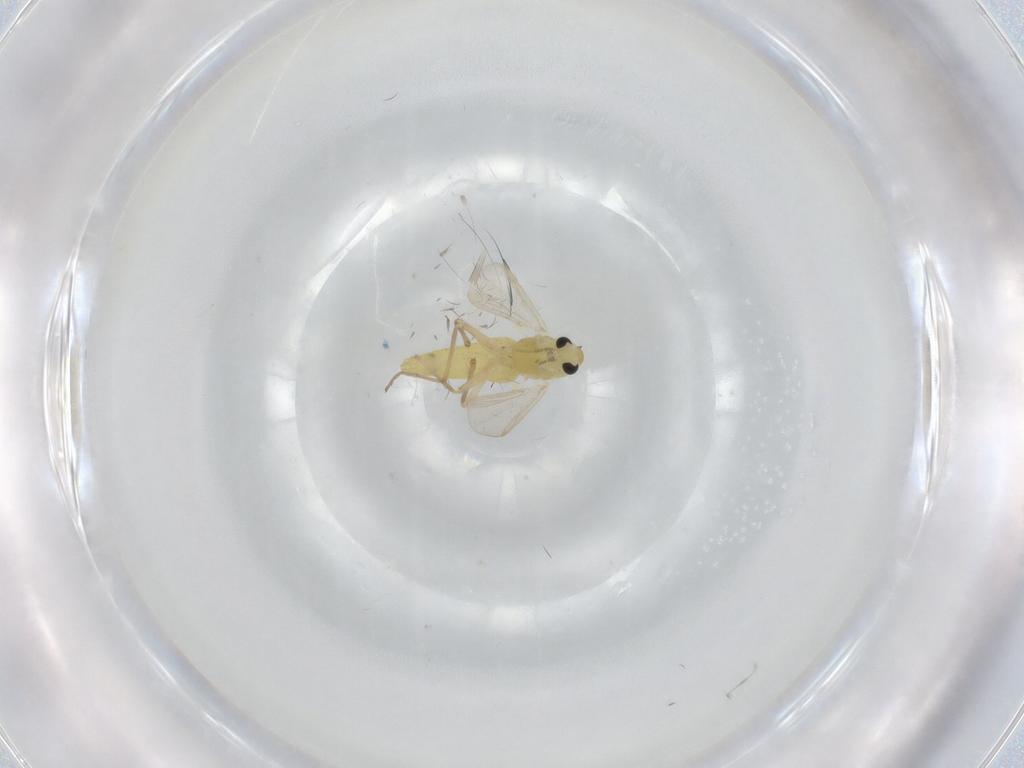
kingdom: Animalia
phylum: Arthropoda
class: Insecta
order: Diptera
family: Chironomidae
